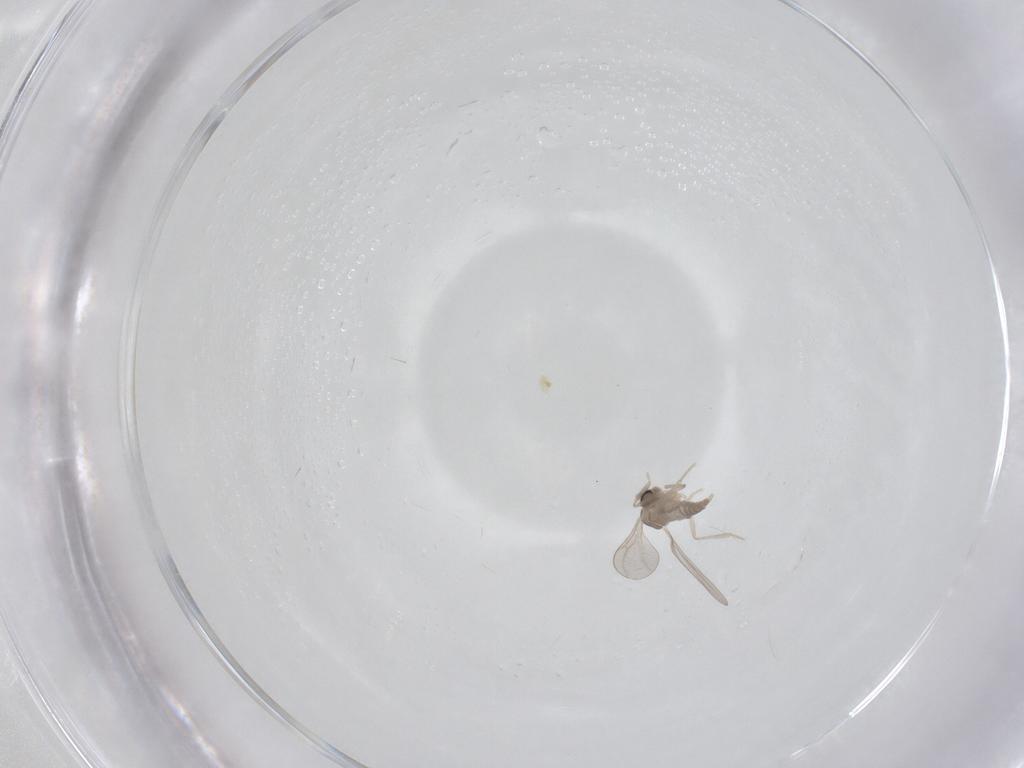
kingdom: Animalia
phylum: Arthropoda
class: Insecta
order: Diptera
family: Cecidomyiidae
